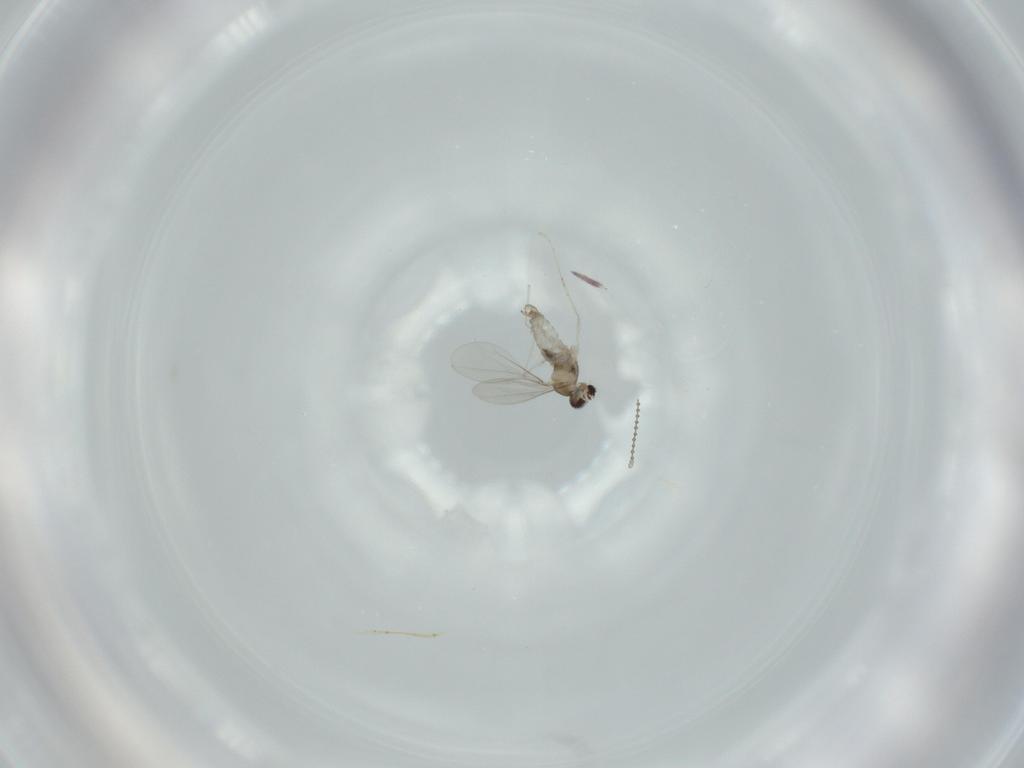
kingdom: Animalia
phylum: Arthropoda
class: Insecta
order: Diptera
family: Cecidomyiidae
